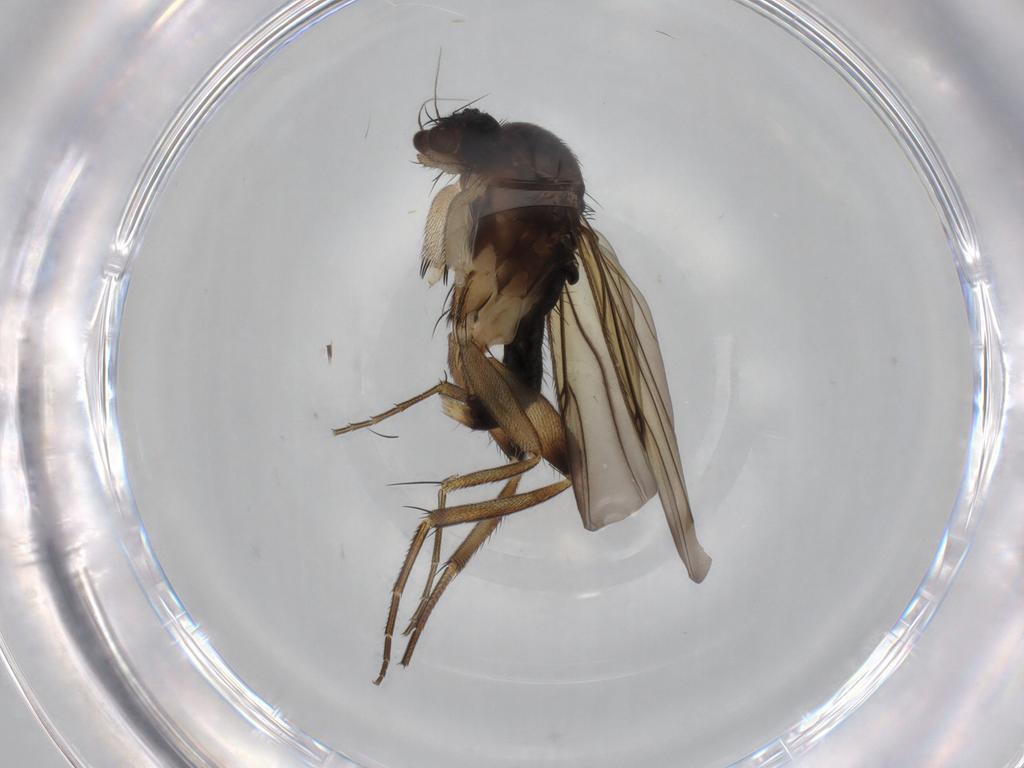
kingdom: Animalia
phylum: Arthropoda
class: Insecta
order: Diptera
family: Phoridae
